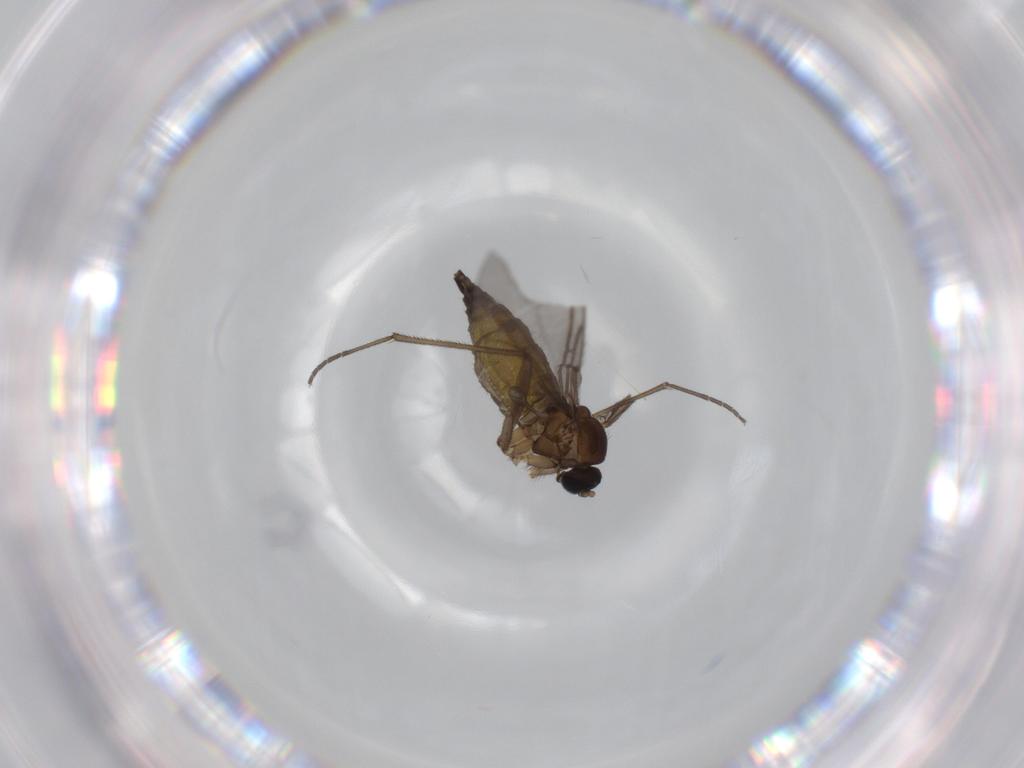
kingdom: Animalia
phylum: Arthropoda
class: Insecta
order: Diptera
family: Sciaridae
